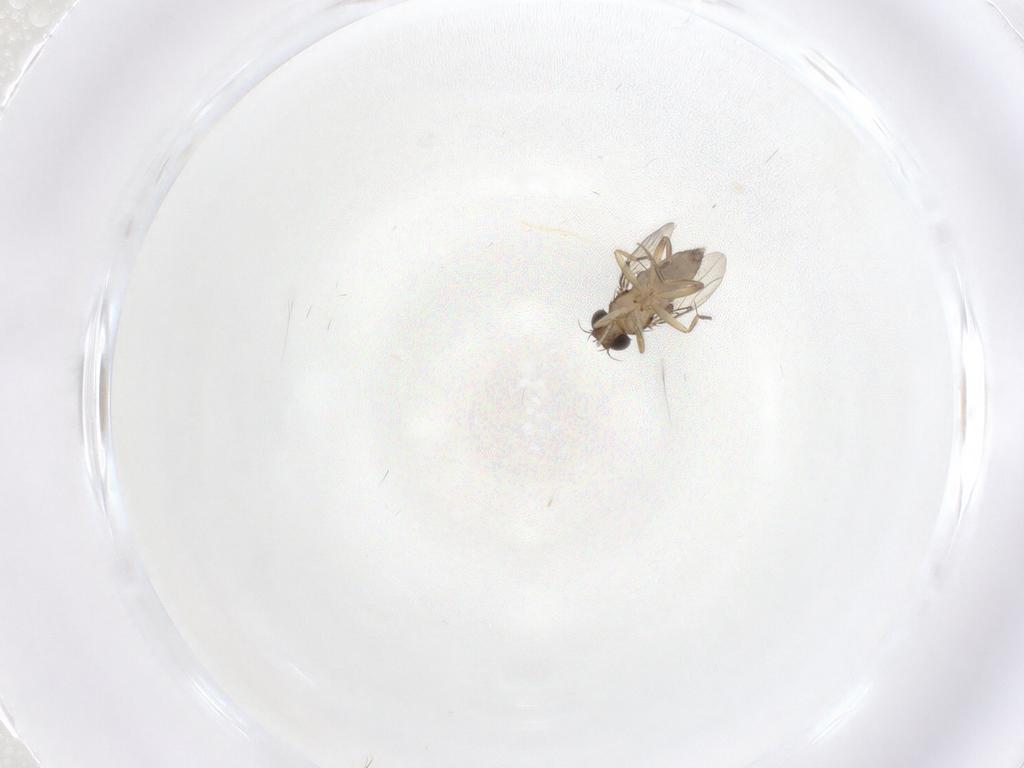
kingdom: Animalia
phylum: Arthropoda
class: Insecta
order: Diptera
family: Phoridae
